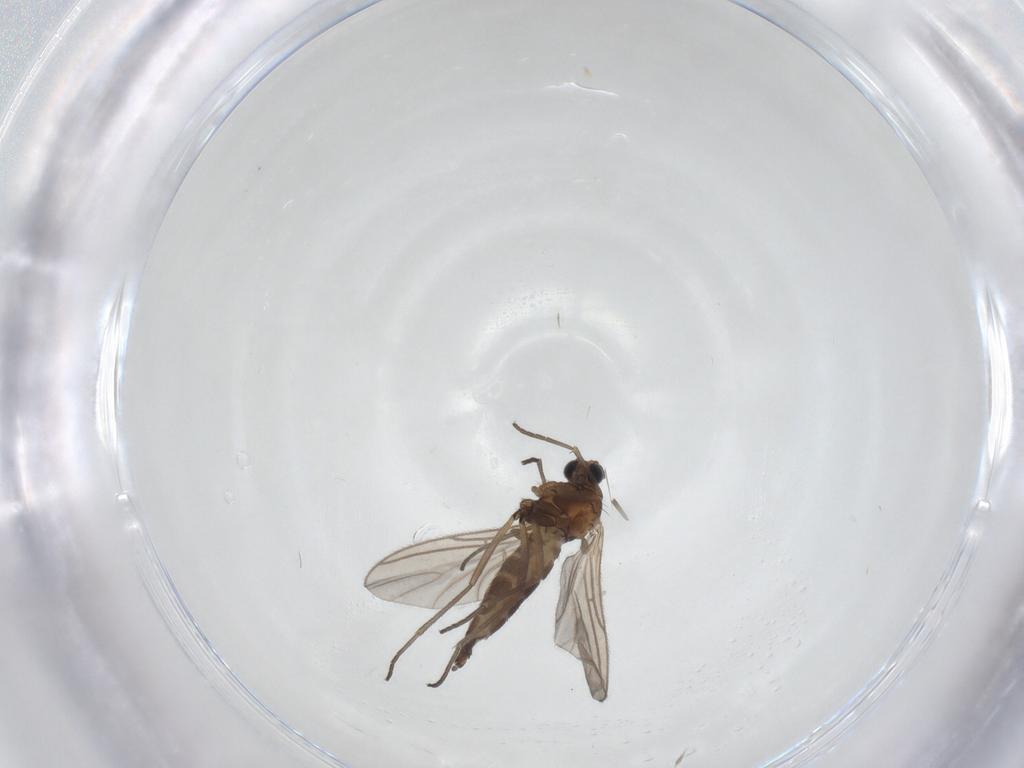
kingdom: Animalia
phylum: Arthropoda
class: Insecta
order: Diptera
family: Sciaridae
